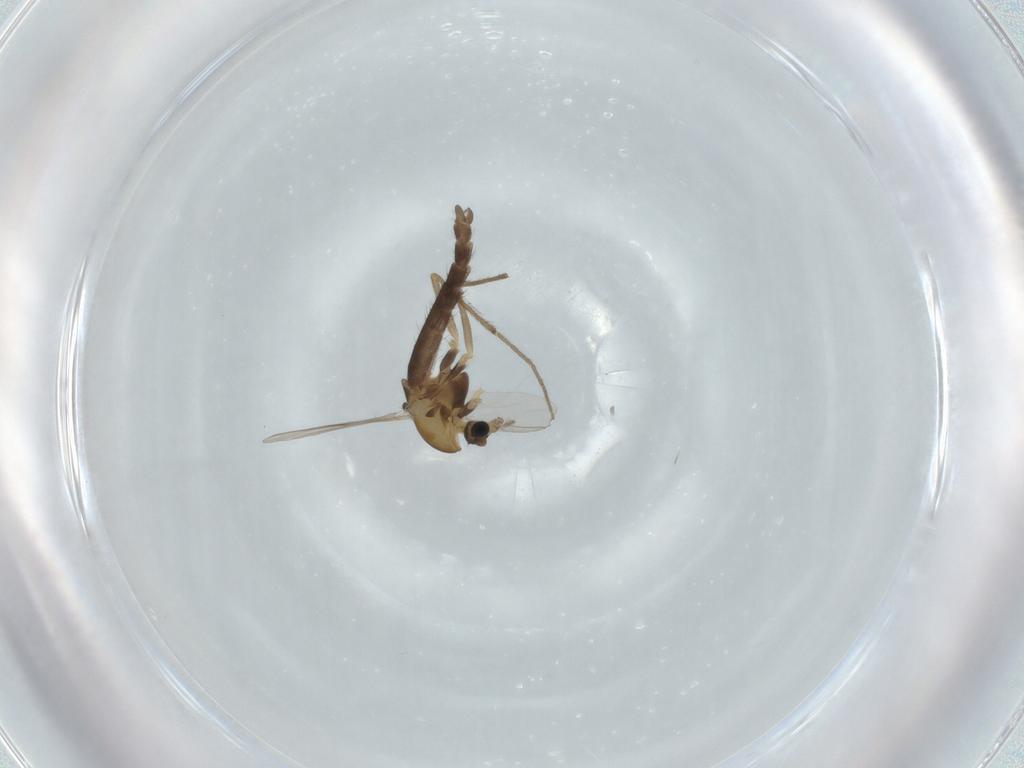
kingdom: Animalia
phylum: Arthropoda
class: Insecta
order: Diptera
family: Chironomidae
